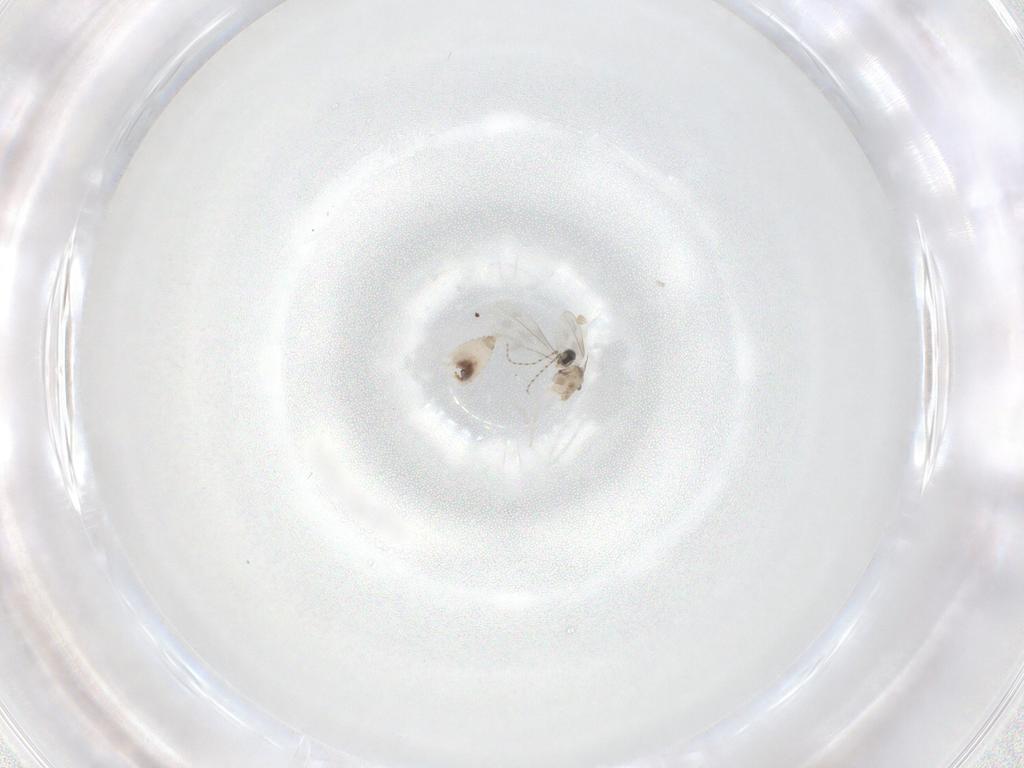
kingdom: Animalia
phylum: Arthropoda
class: Insecta
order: Diptera
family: Cecidomyiidae
